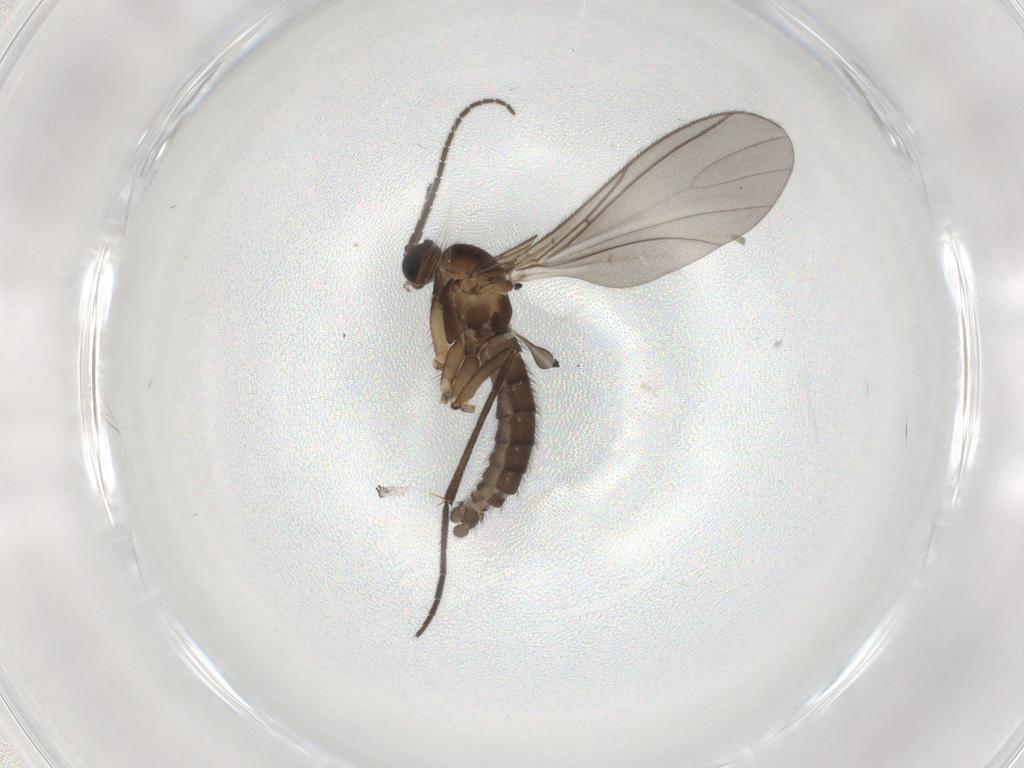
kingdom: Animalia
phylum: Arthropoda
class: Insecta
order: Diptera
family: Sciaridae
